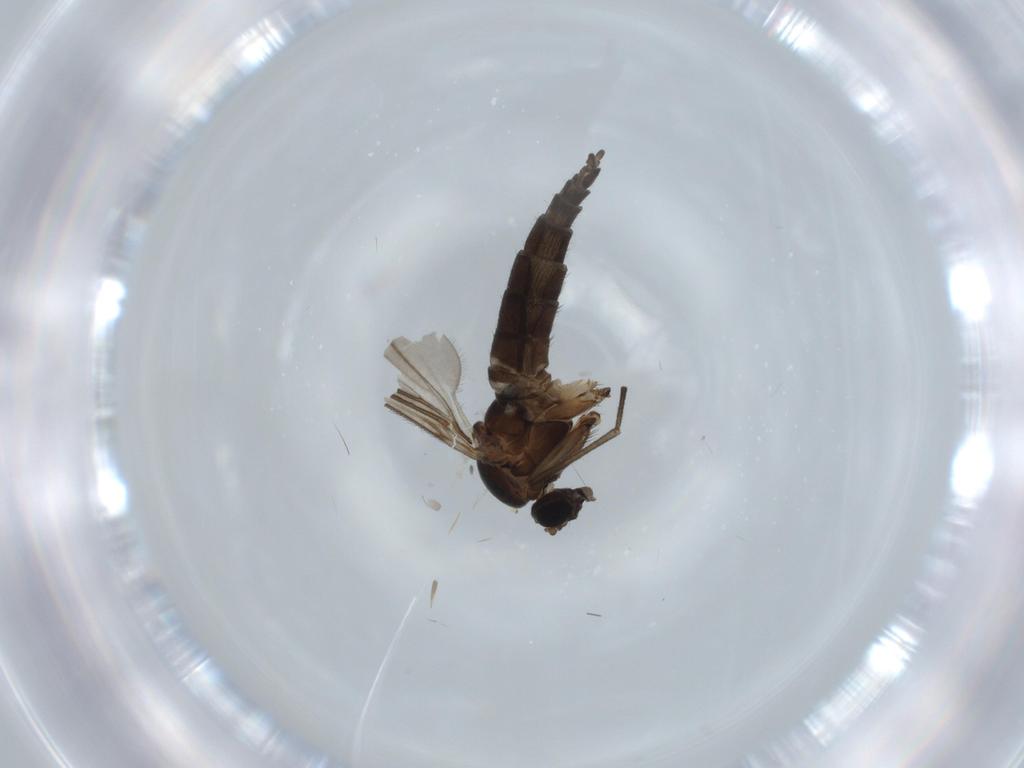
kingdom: Animalia
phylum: Arthropoda
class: Insecta
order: Diptera
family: Sciaridae
